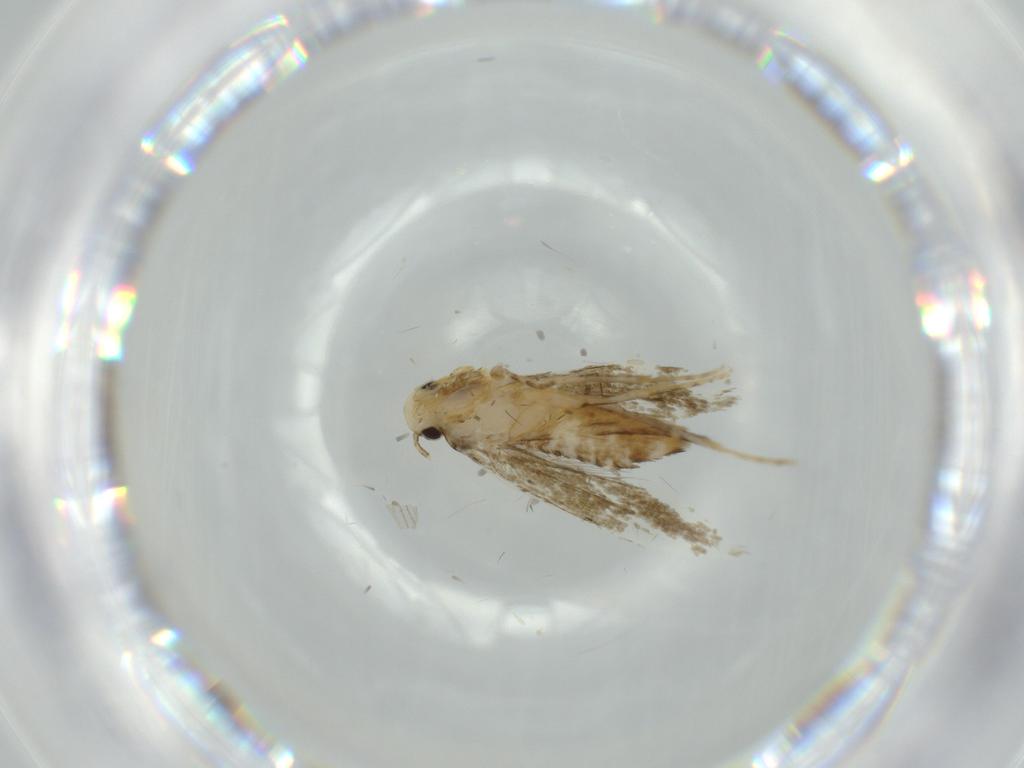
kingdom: Animalia
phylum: Arthropoda
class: Insecta
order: Lepidoptera
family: Tineidae
